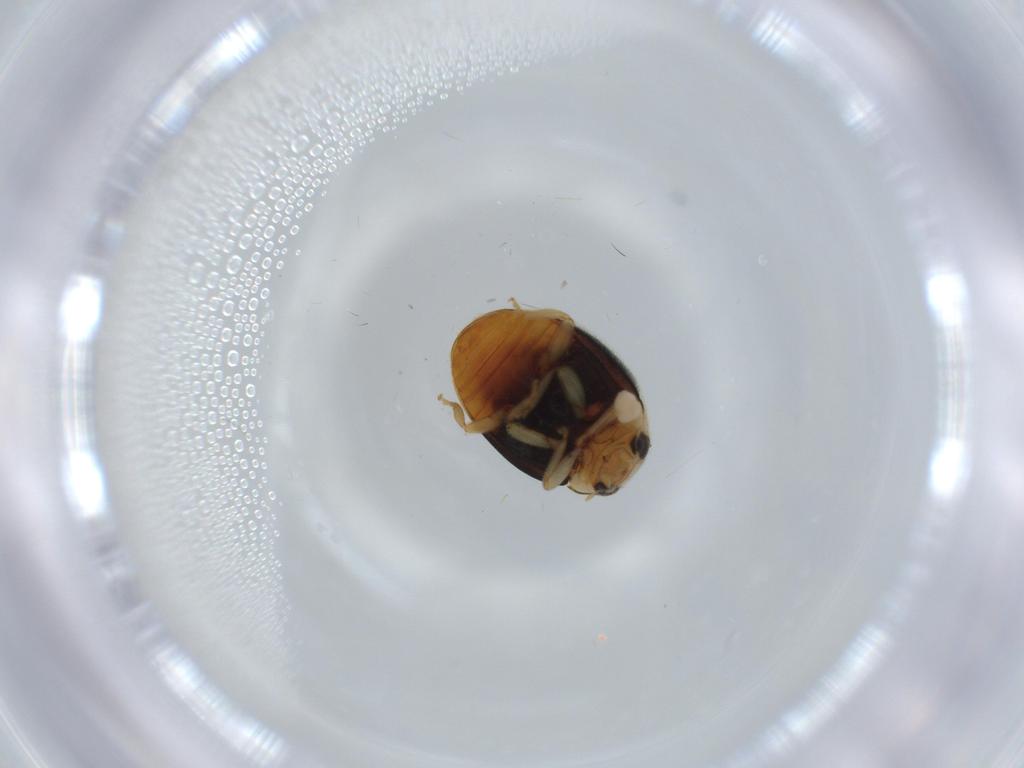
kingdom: Animalia
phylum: Arthropoda
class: Insecta
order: Coleoptera
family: Coccinellidae
